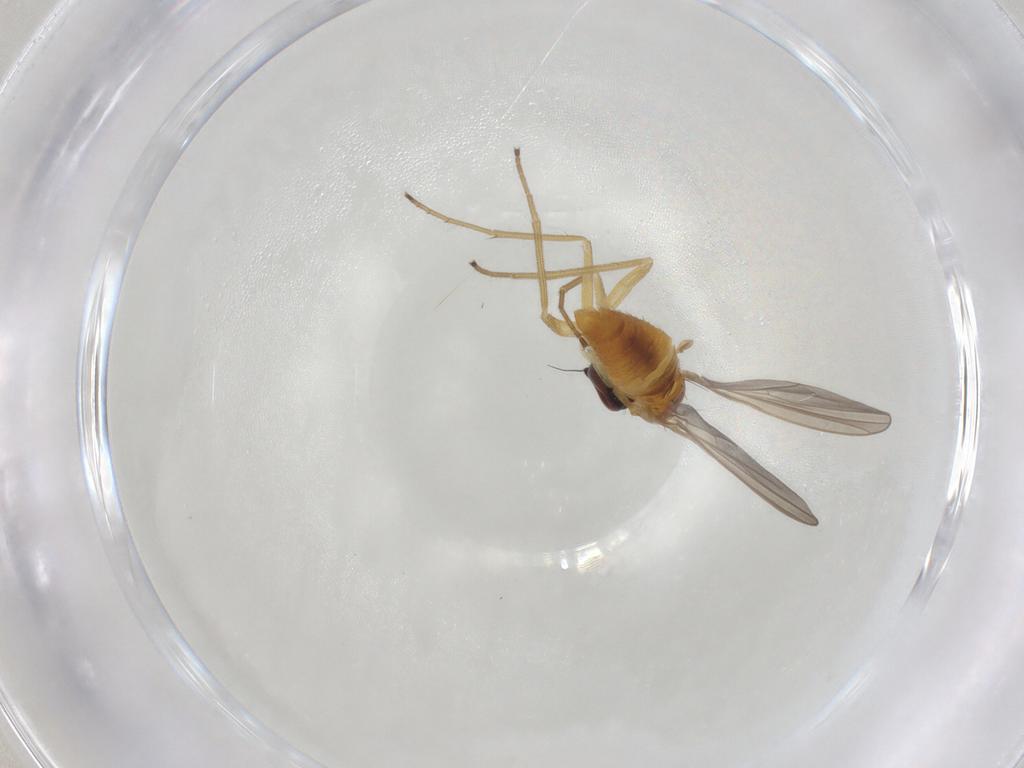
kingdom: Animalia
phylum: Arthropoda
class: Insecta
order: Diptera
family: Dolichopodidae
